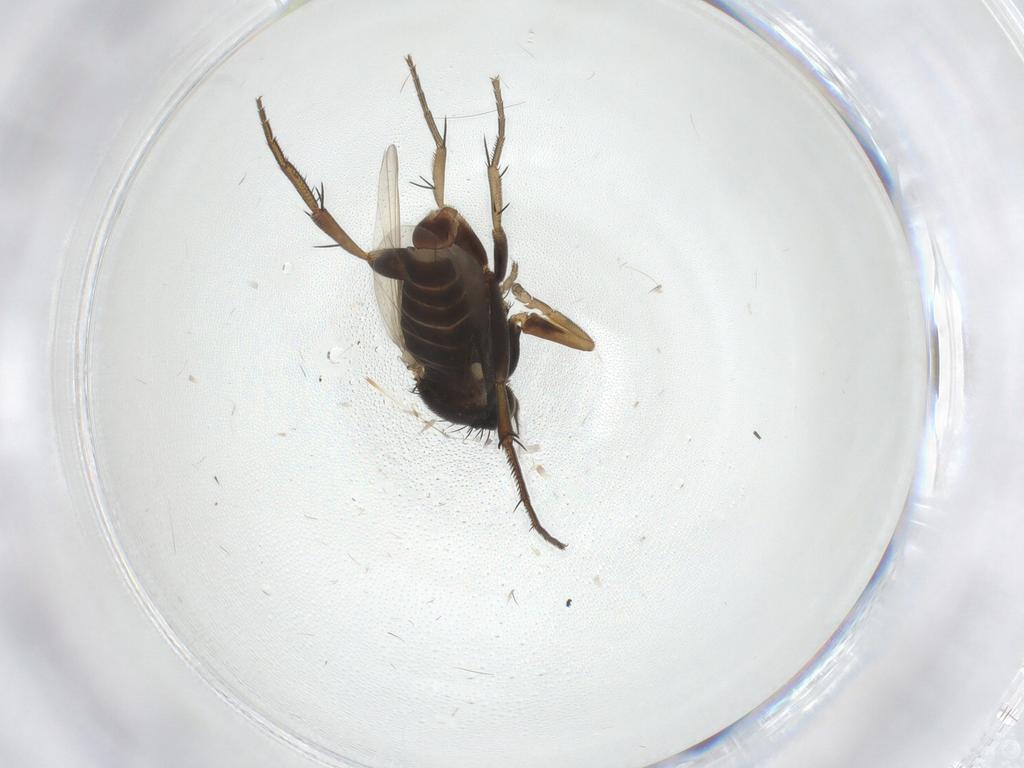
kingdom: Animalia
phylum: Arthropoda
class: Insecta
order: Diptera
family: Phoridae
